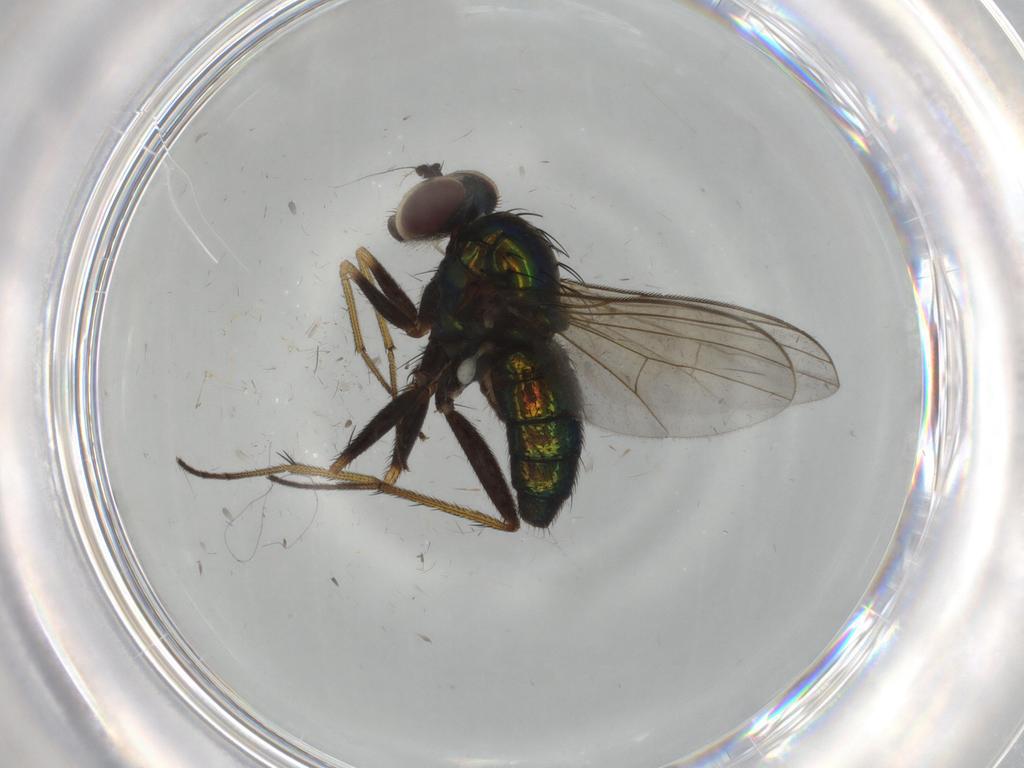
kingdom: Animalia
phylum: Arthropoda
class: Insecta
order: Diptera
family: Dolichopodidae
